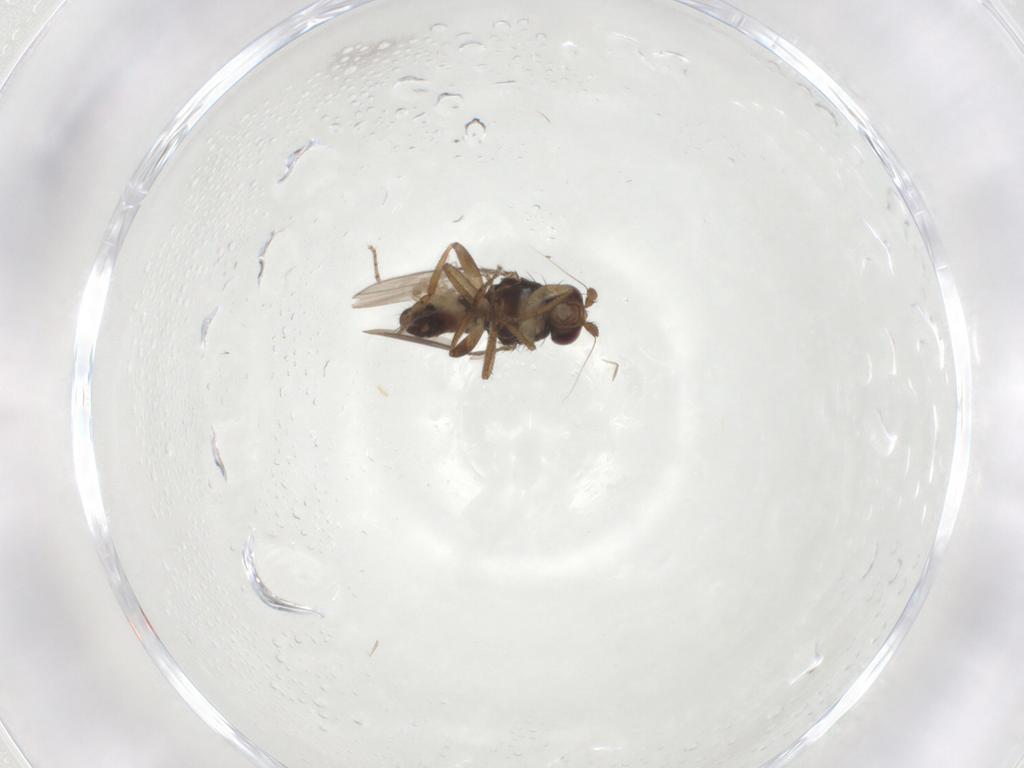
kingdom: Animalia
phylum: Arthropoda
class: Insecta
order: Diptera
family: Sphaeroceridae
